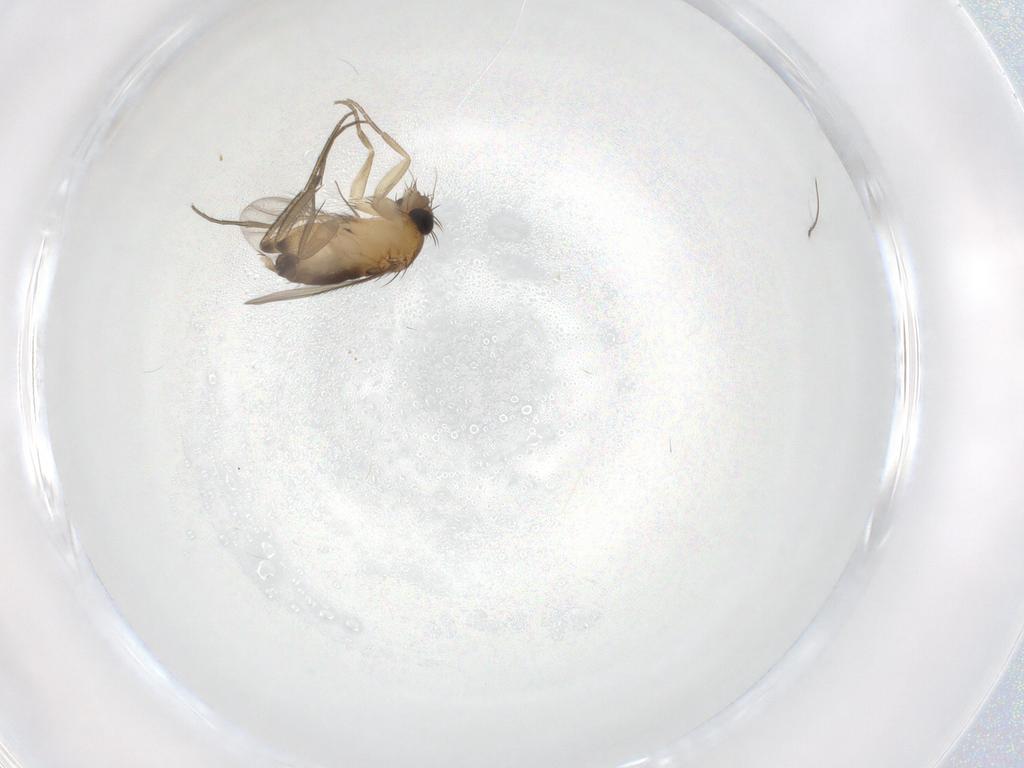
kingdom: Animalia
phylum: Arthropoda
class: Insecta
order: Diptera
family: Phoridae
